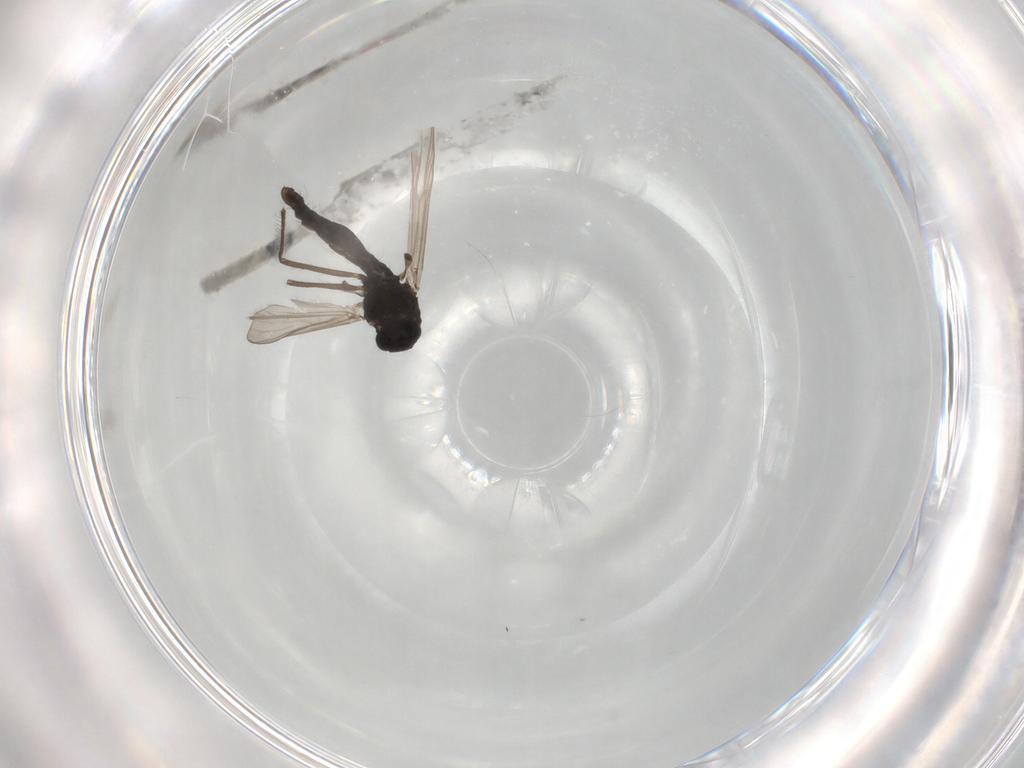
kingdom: Animalia
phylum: Arthropoda
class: Insecta
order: Diptera
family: Chironomidae
